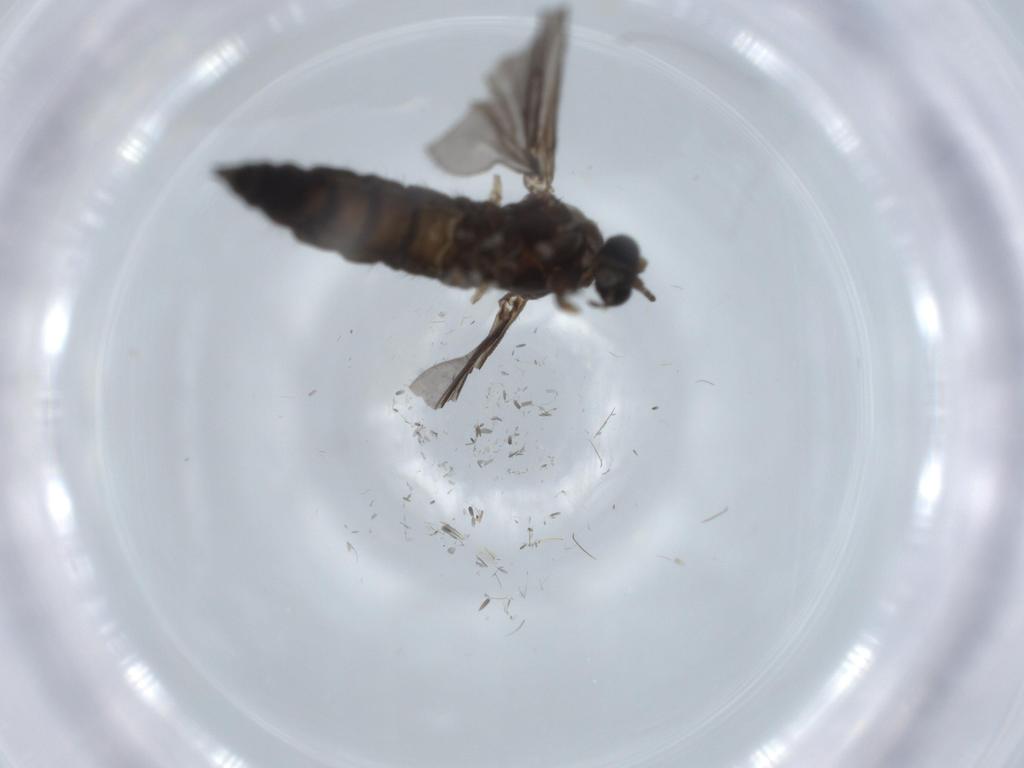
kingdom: Animalia
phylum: Arthropoda
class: Insecta
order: Diptera
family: Sciaridae
